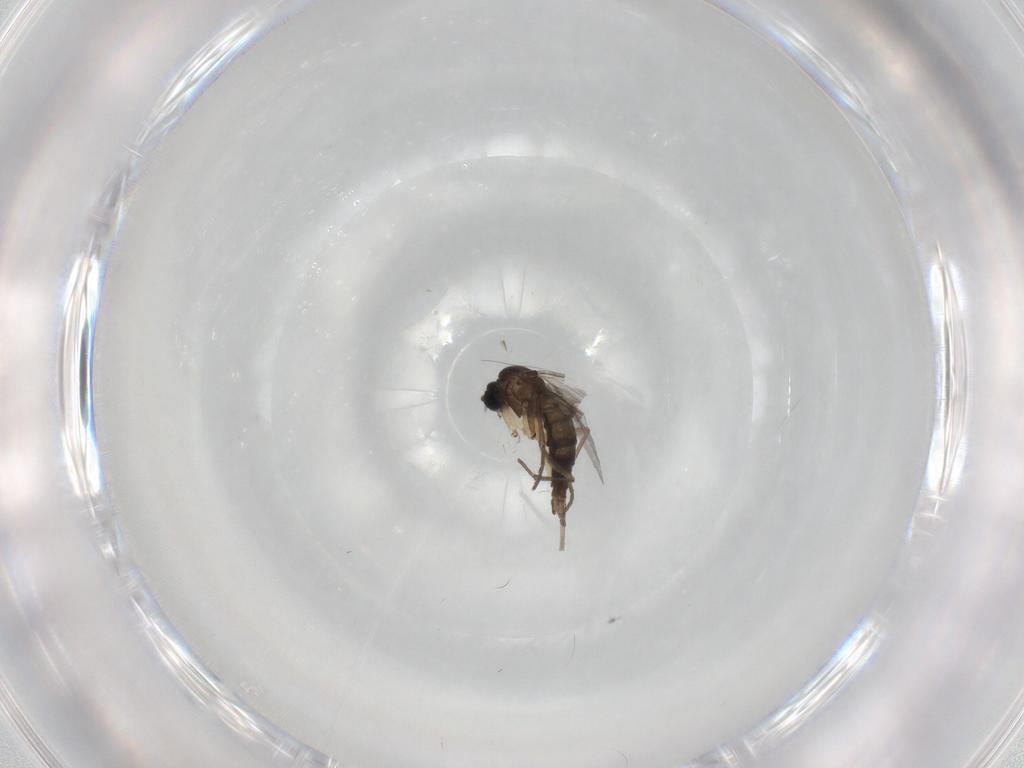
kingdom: Animalia
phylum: Arthropoda
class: Insecta
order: Diptera
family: Sciaridae
